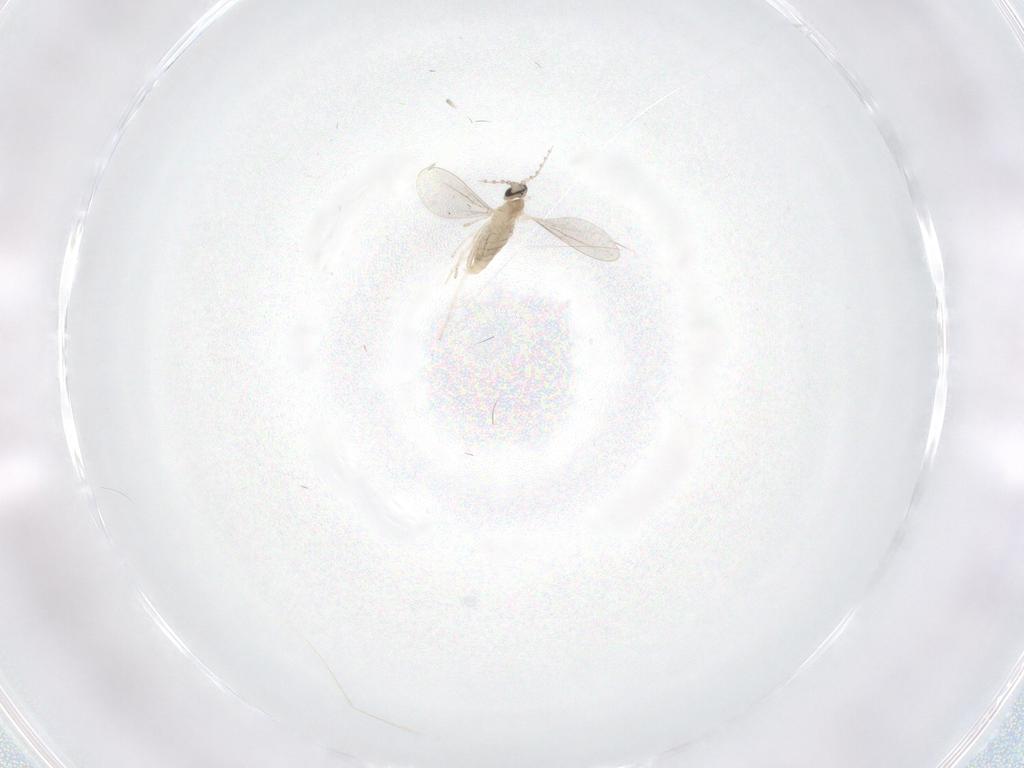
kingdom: Animalia
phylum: Arthropoda
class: Insecta
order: Diptera
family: Cecidomyiidae
